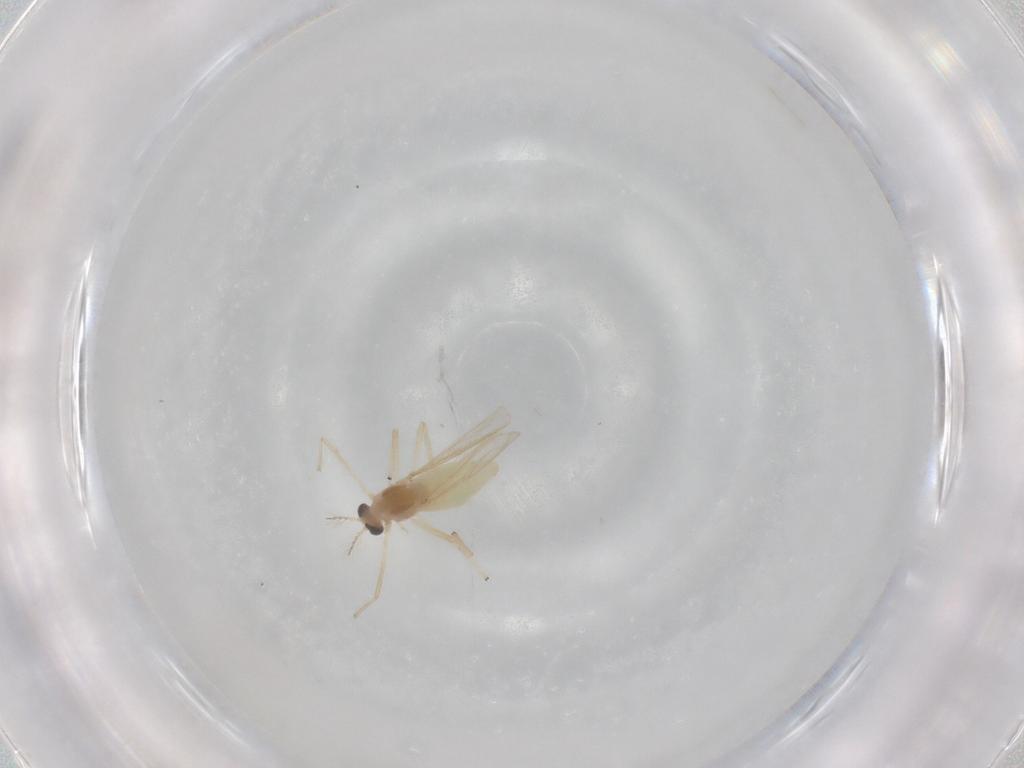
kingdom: Animalia
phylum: Arthropoda
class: Insecta
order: Diptera
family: Chironomidae
